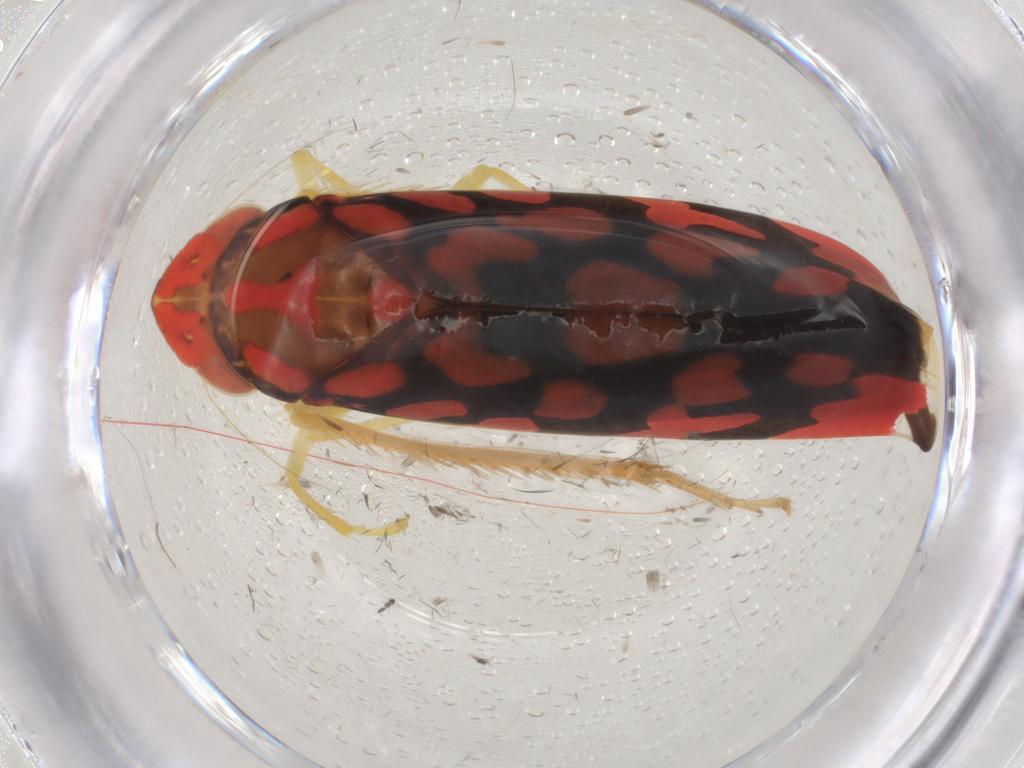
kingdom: Animalia
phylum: Arthropoda
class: Insecta
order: Hemiptera
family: Cicadellidae
